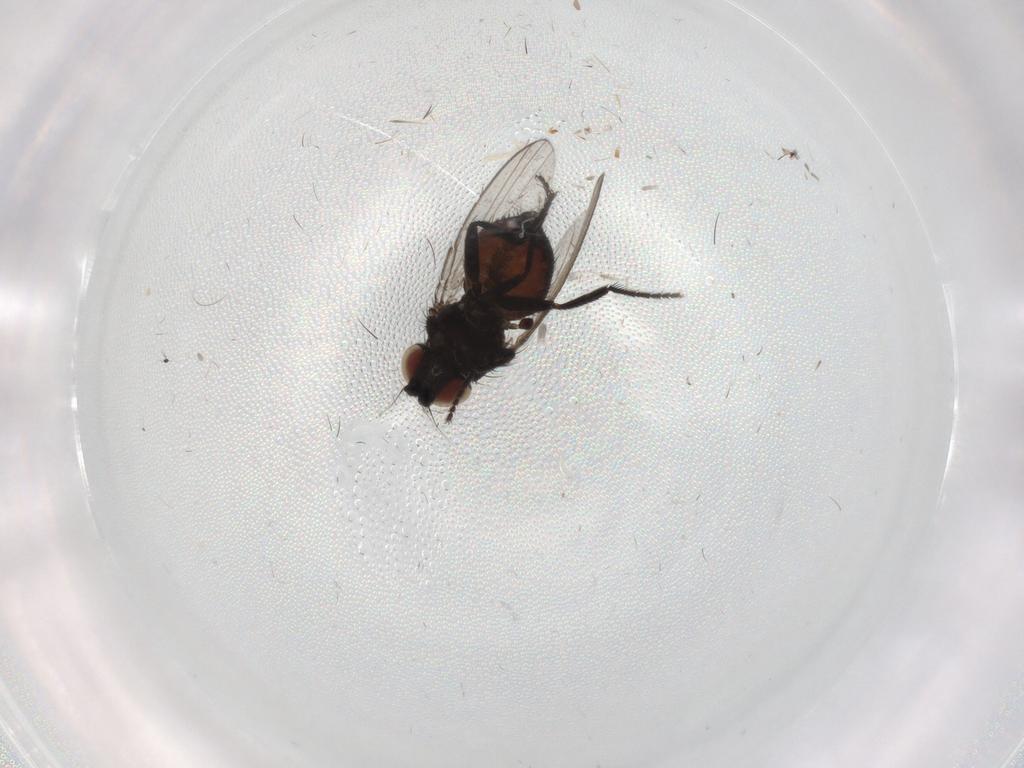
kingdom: Animalia
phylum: Arthropoda
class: Insecta
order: Diptera
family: Milichiidae
